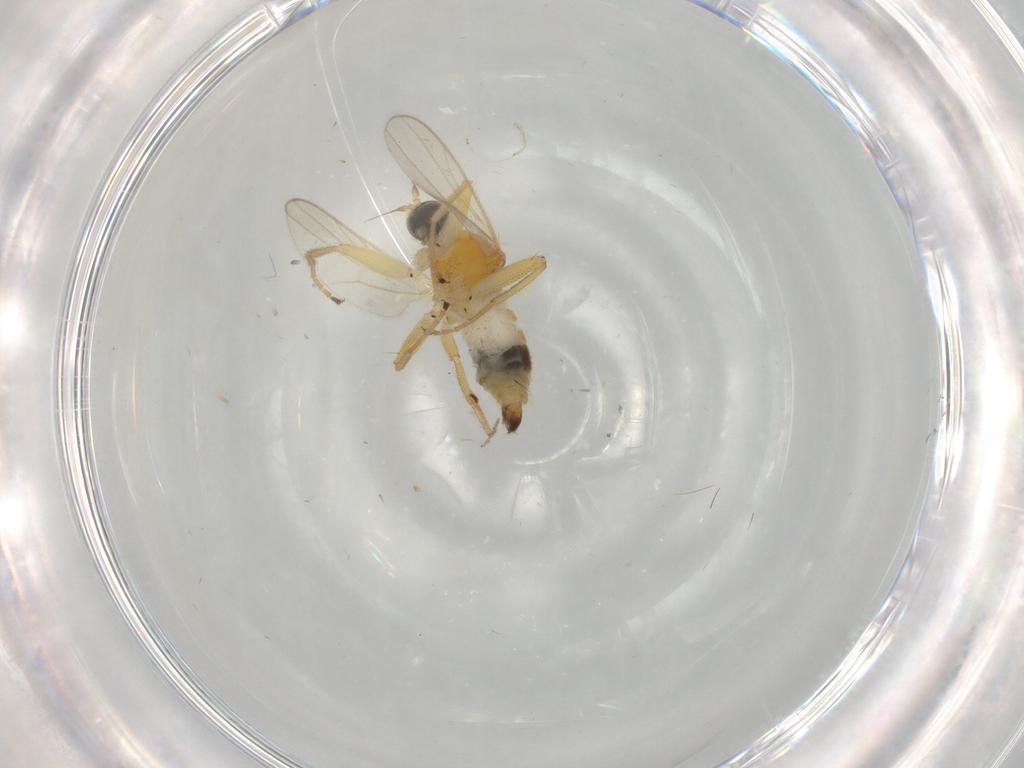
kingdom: Animalia
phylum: Arthropoda
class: Insecta
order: Diptera
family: Hybotidae
